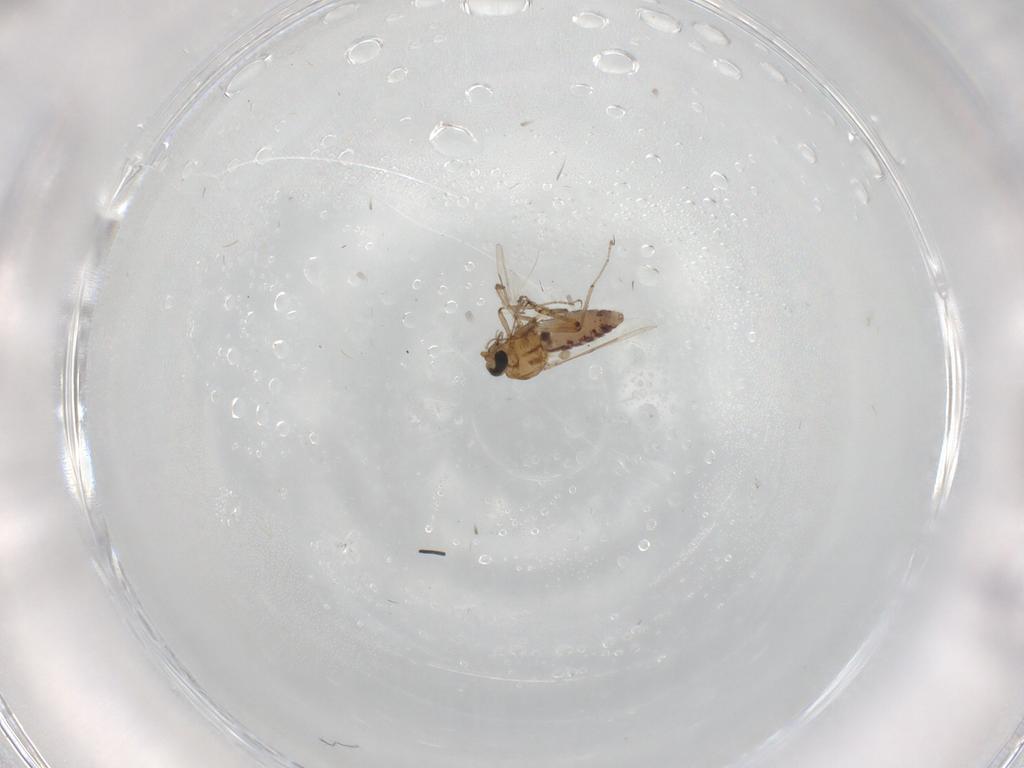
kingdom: Animalia
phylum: Arthropoda
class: Insecta
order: Diptera
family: Ceratopogonidae
